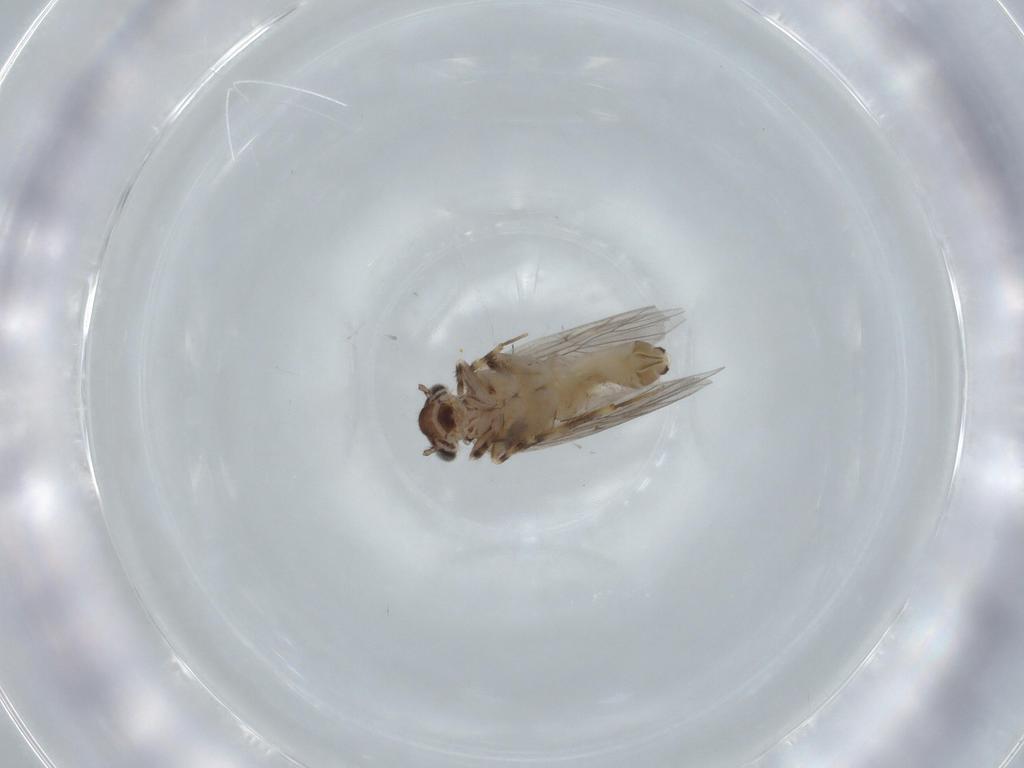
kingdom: Animalia
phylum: Arthropoda
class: Insecta
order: Psocodea
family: Lepidopsocidae
